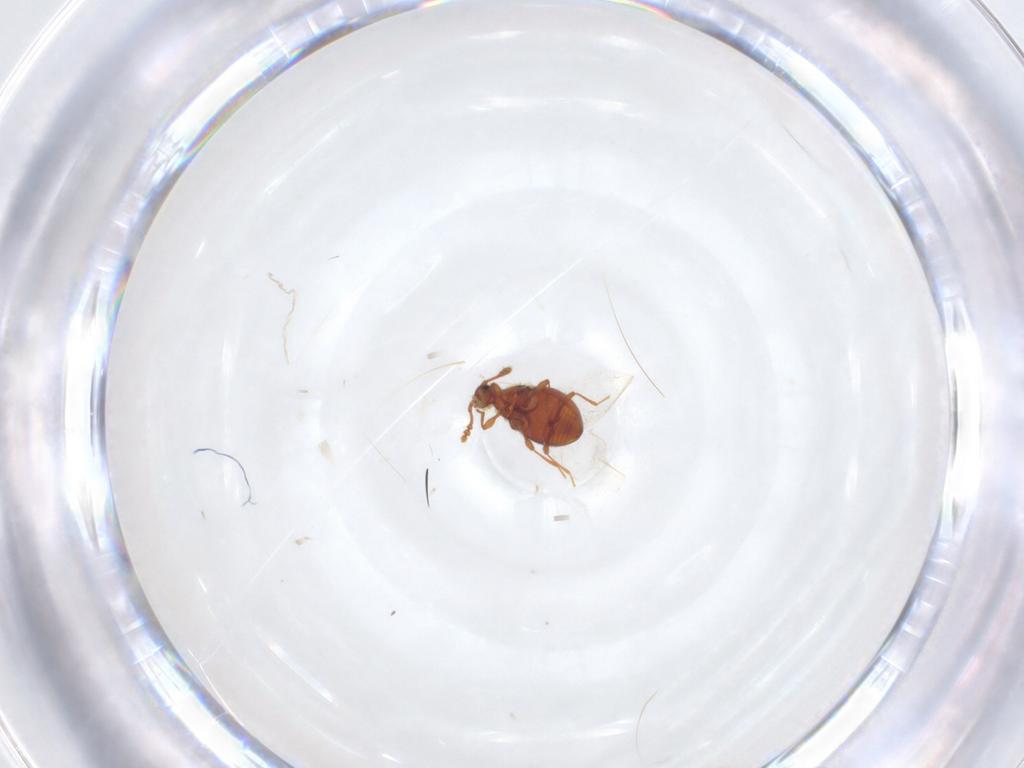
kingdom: Animalia
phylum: Arthropoda
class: Insecta
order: Coleoptera
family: Staphylinidae
